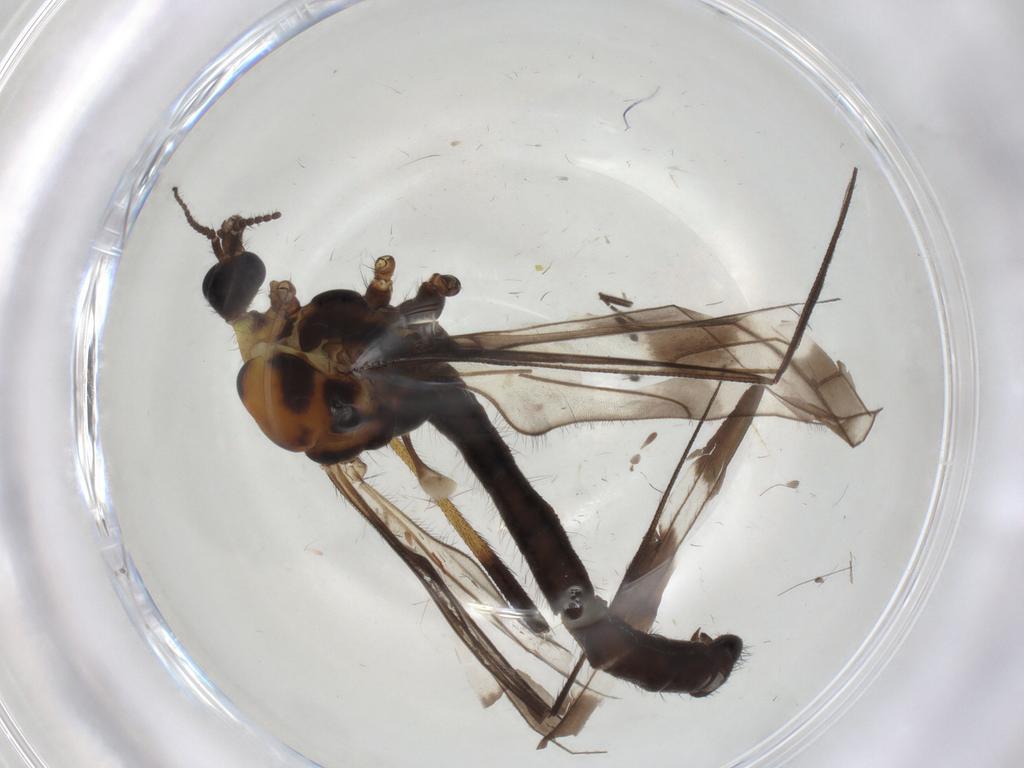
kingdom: Animalia
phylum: Arthropoda
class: Insecta
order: Diptera
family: Limoniidae
